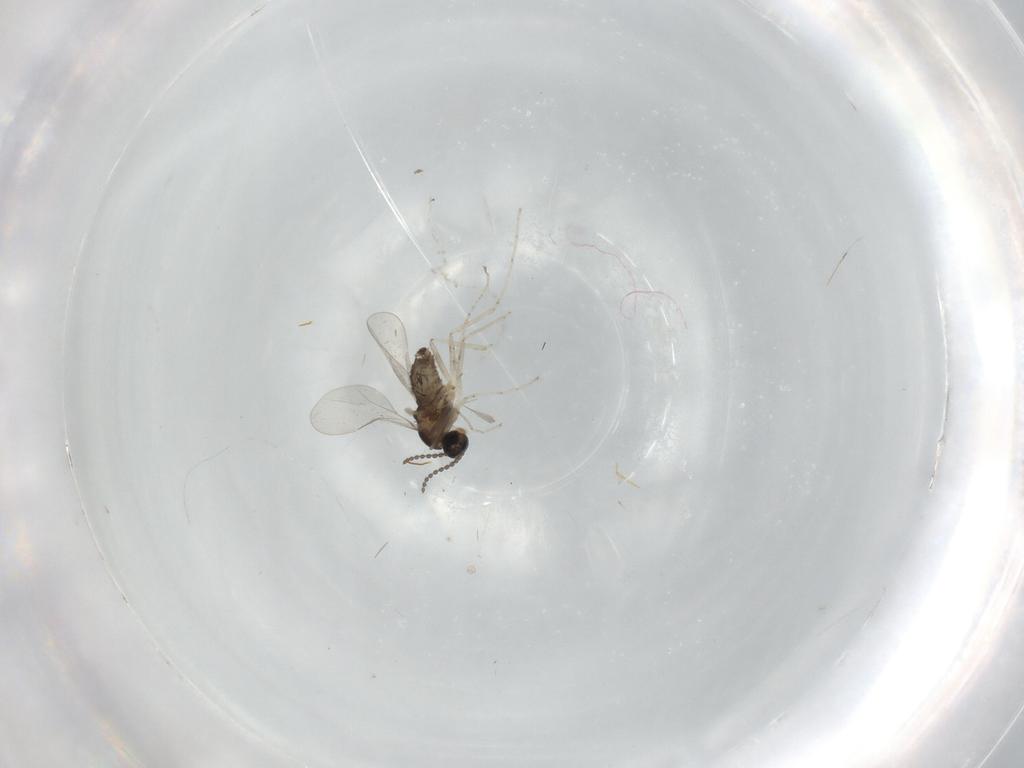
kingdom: Animalia
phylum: Arthropoda
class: Insecta
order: Diptera
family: Cecidomyiidae
